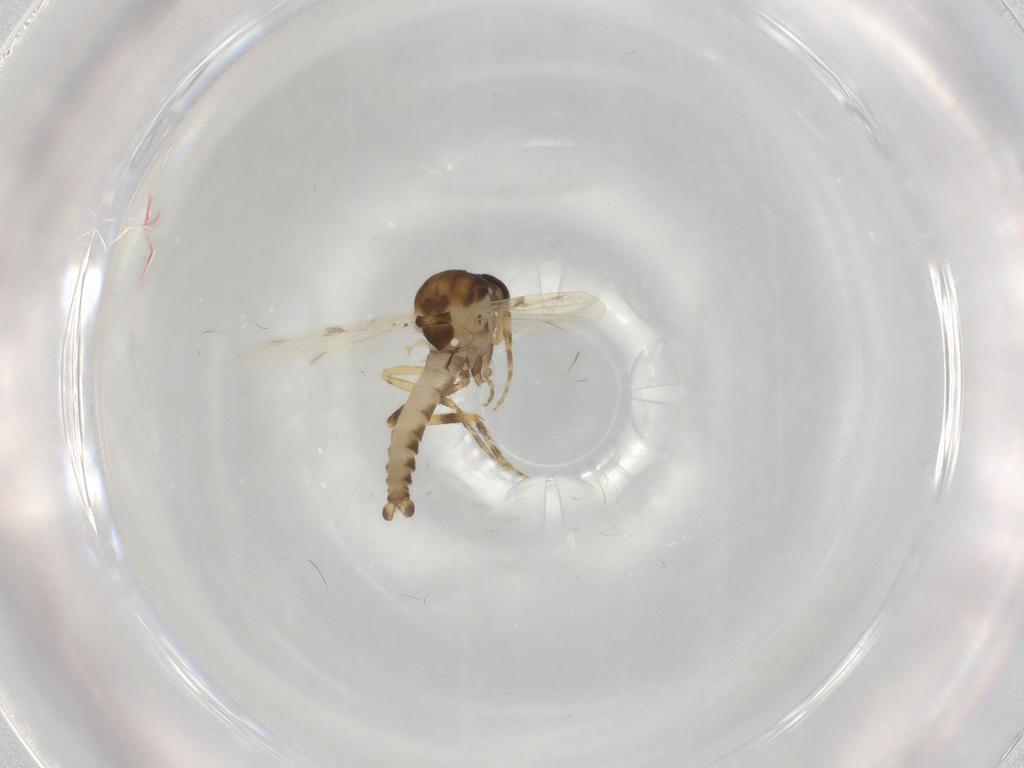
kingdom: Animalia
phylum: Arthropoda
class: Insecta
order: Diptera
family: Ceratopogonidae
